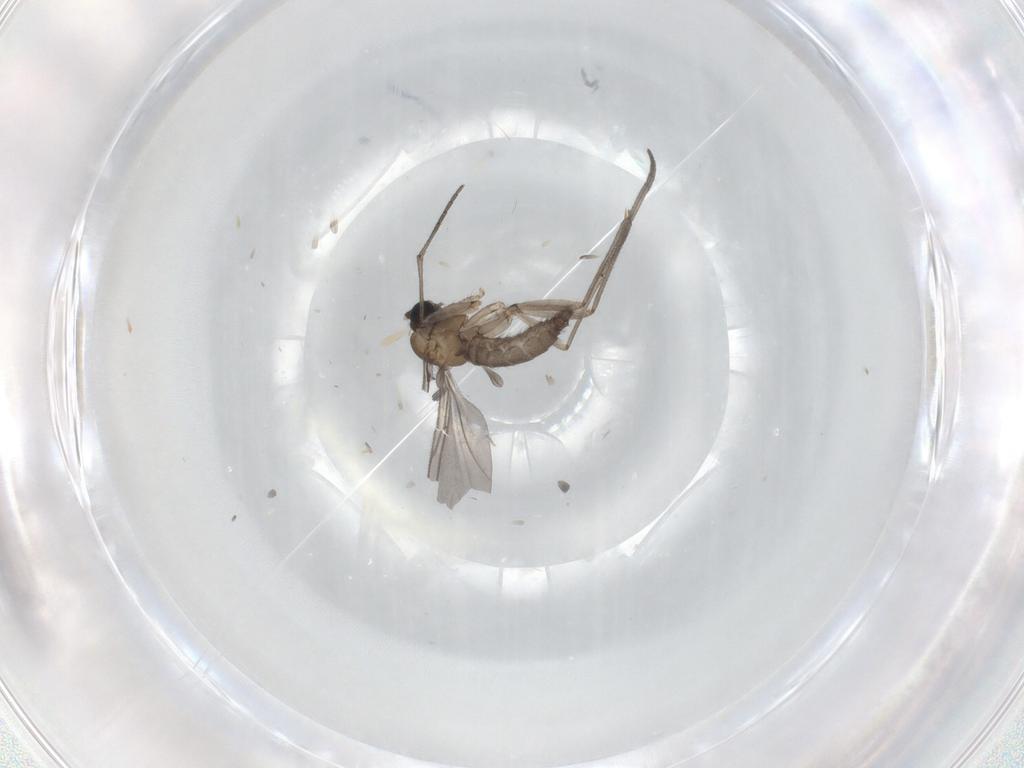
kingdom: Animalia
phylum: Arthropoda
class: Insecta
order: Diptera
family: Sciaridae
